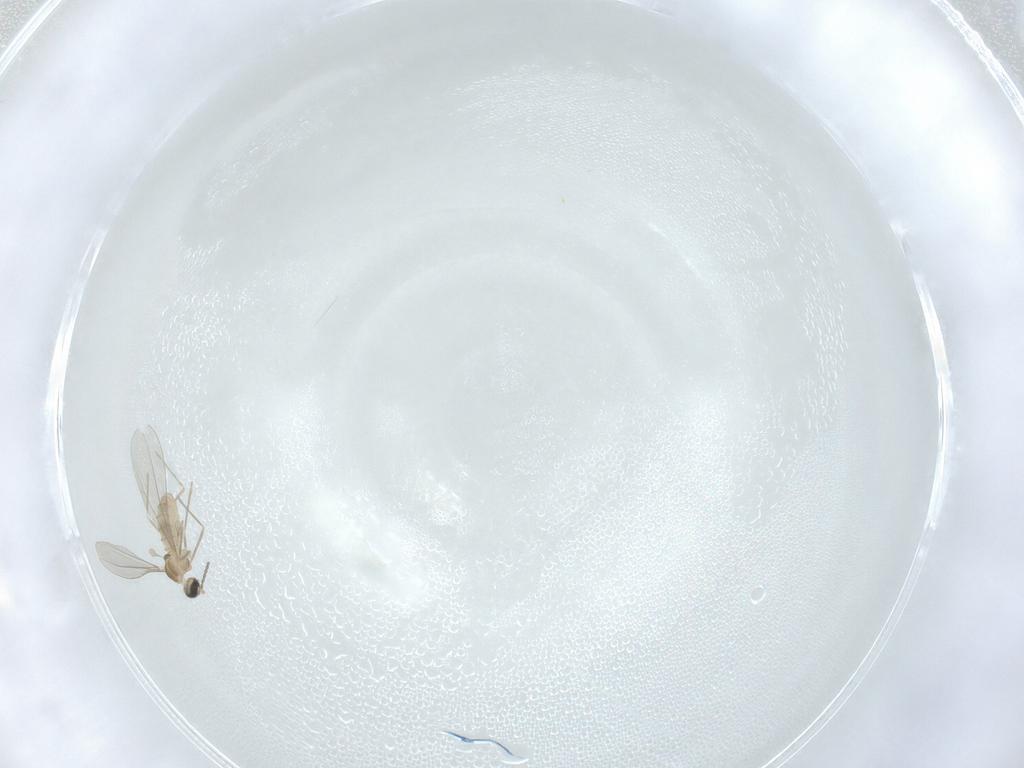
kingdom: Animalia
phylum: Arthropoda
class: Insecta
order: Diptera
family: Cecidomyiidae
